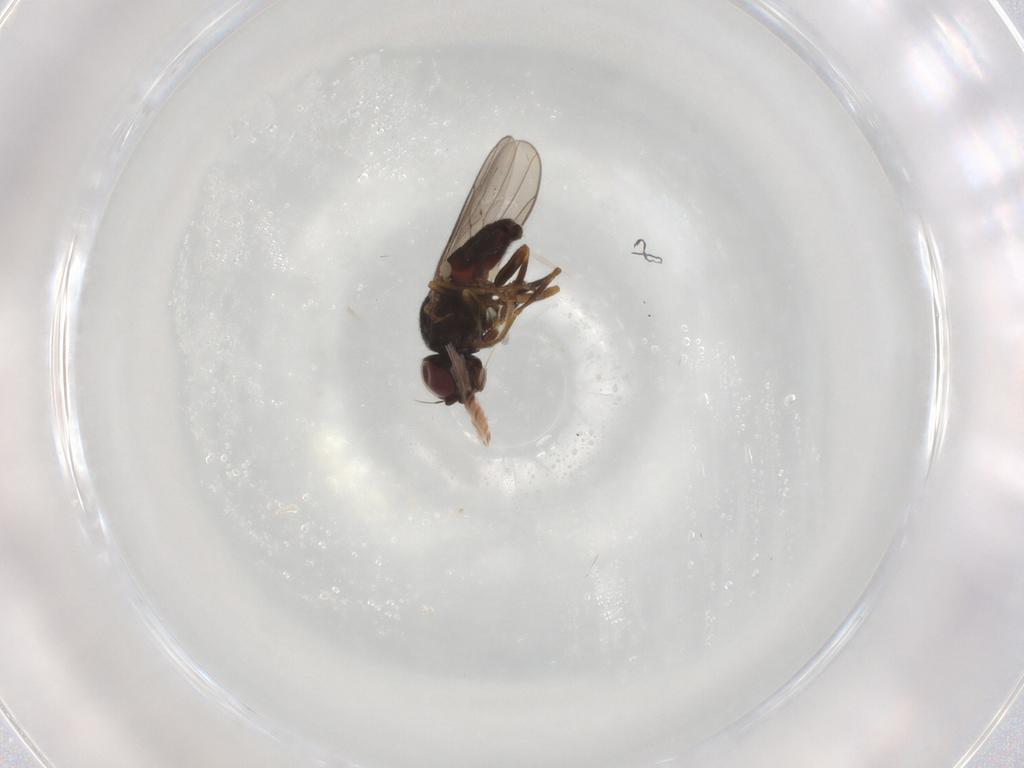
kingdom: Animalia
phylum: Arthropoda
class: Insecta
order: Diptera
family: Chloropidae
